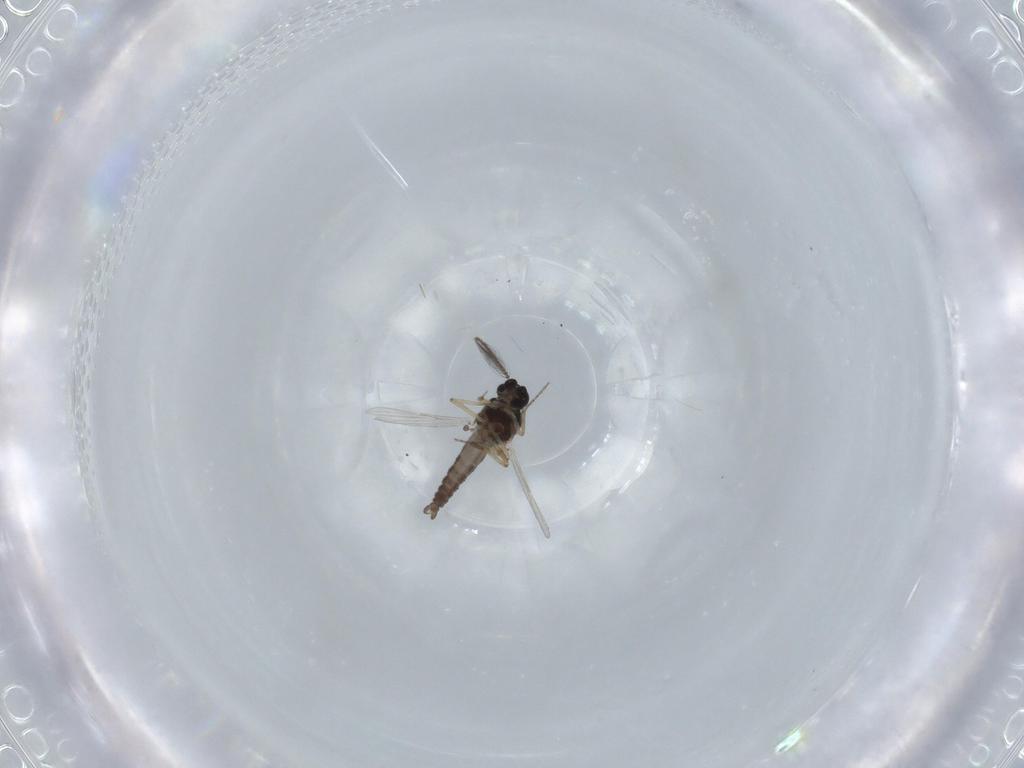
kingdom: Animalia
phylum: Arthropoda
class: Insecta
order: Diptera
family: Ceratopogonidae
